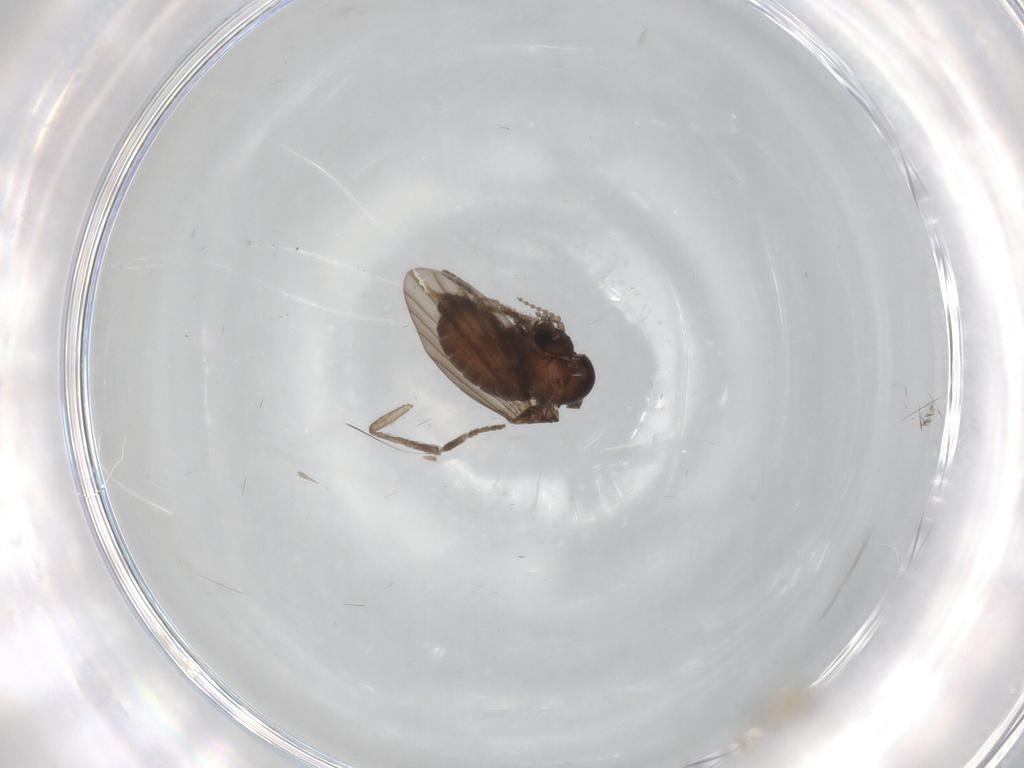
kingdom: Animalia
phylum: Arthropoda
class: Insecta
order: Diptera
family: Psychodidae
